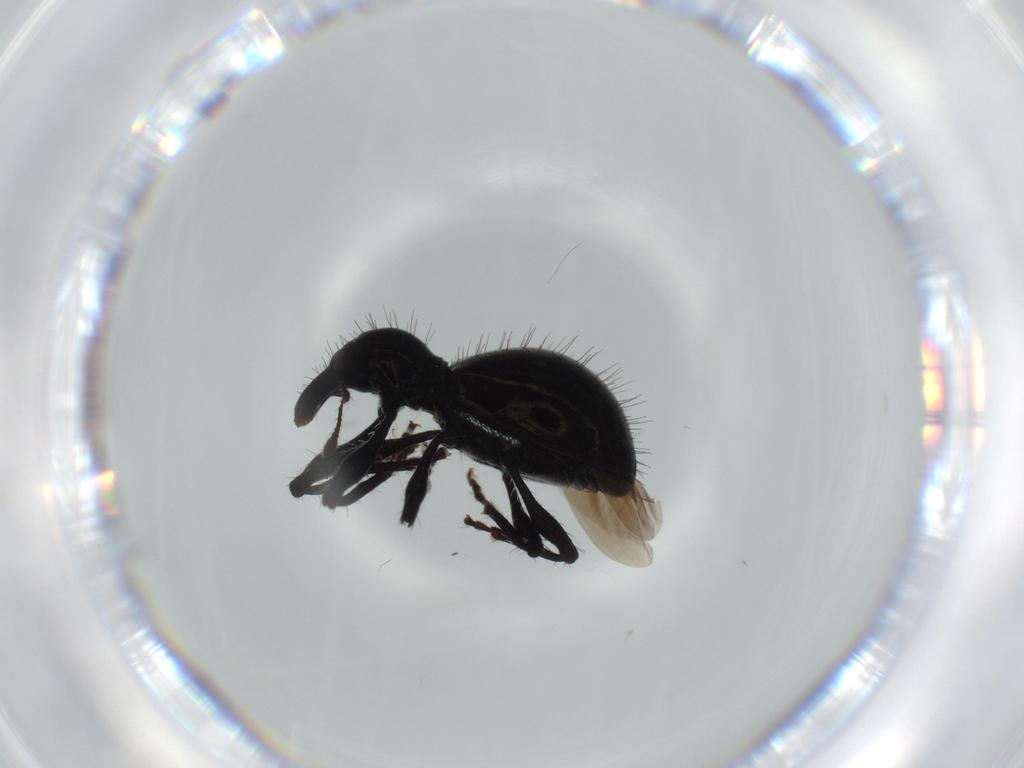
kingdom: Animalia
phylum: Arthropoda
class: Insecta
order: Coleoptera
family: Curculionidae
